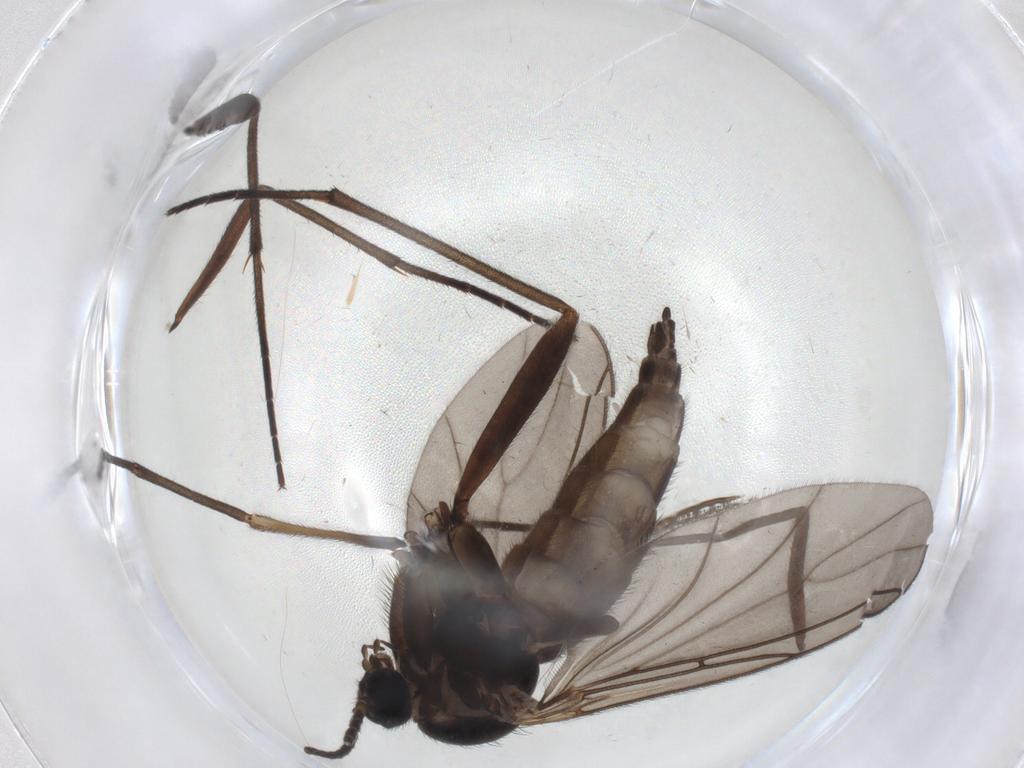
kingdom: Animalia
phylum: Arthropoda
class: Insecta
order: Diptera
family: Sciaridae
